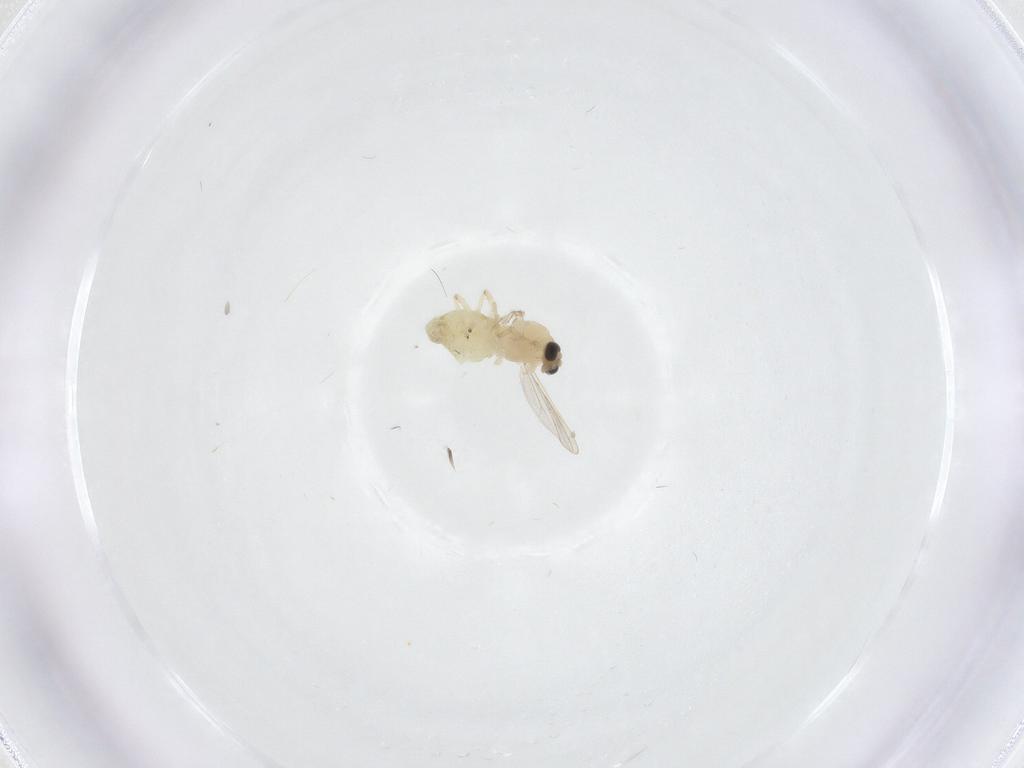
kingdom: Animalia
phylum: Arthropoda
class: Insecta
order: Diptera
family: Chironomidae
